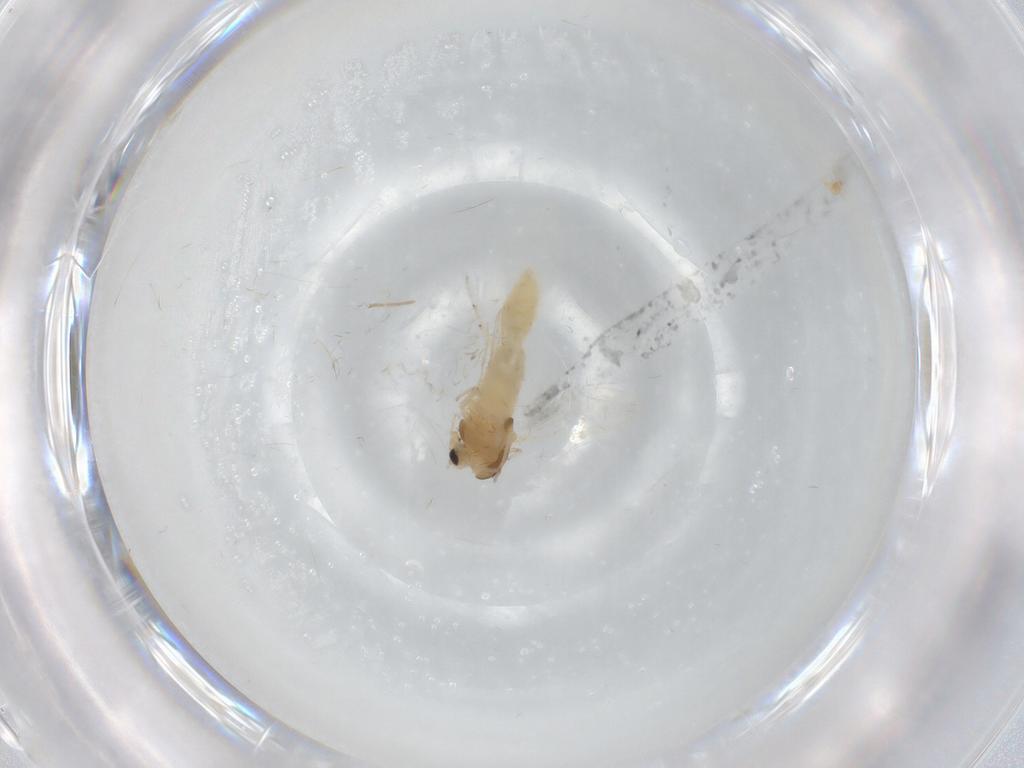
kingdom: Animalia
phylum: Arthropoda
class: Insecta
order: Diptera
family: Chironomidae
